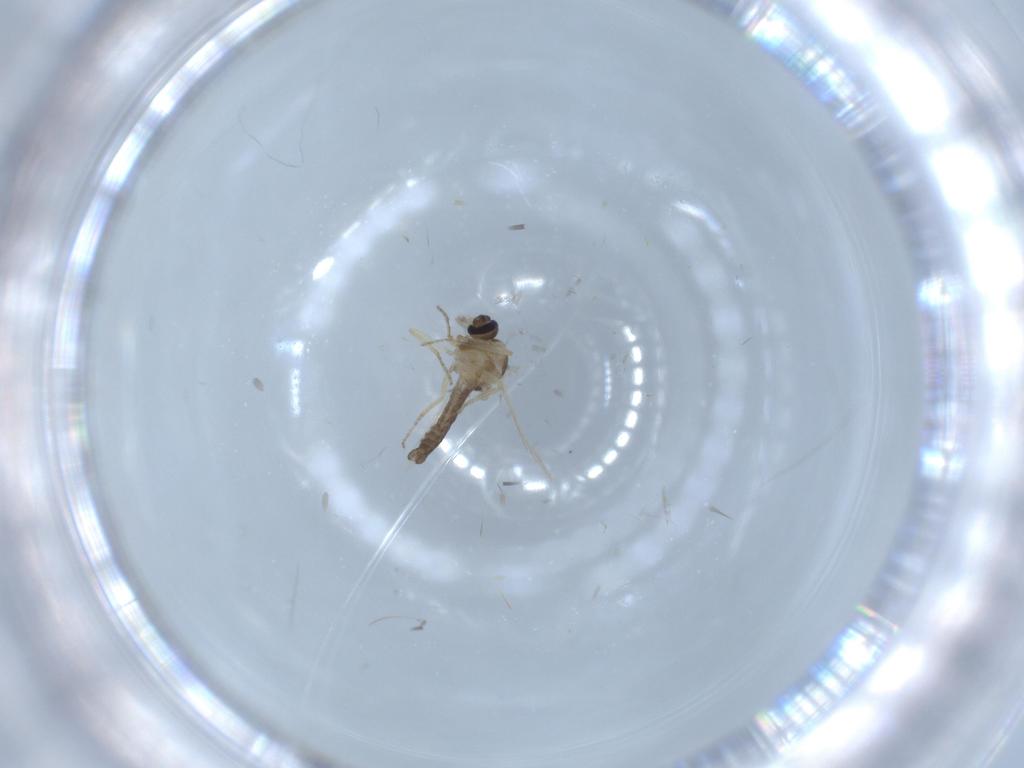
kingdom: Animalia
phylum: Arthropoda
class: Insecta
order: Diptera
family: Ceratopogonidae
